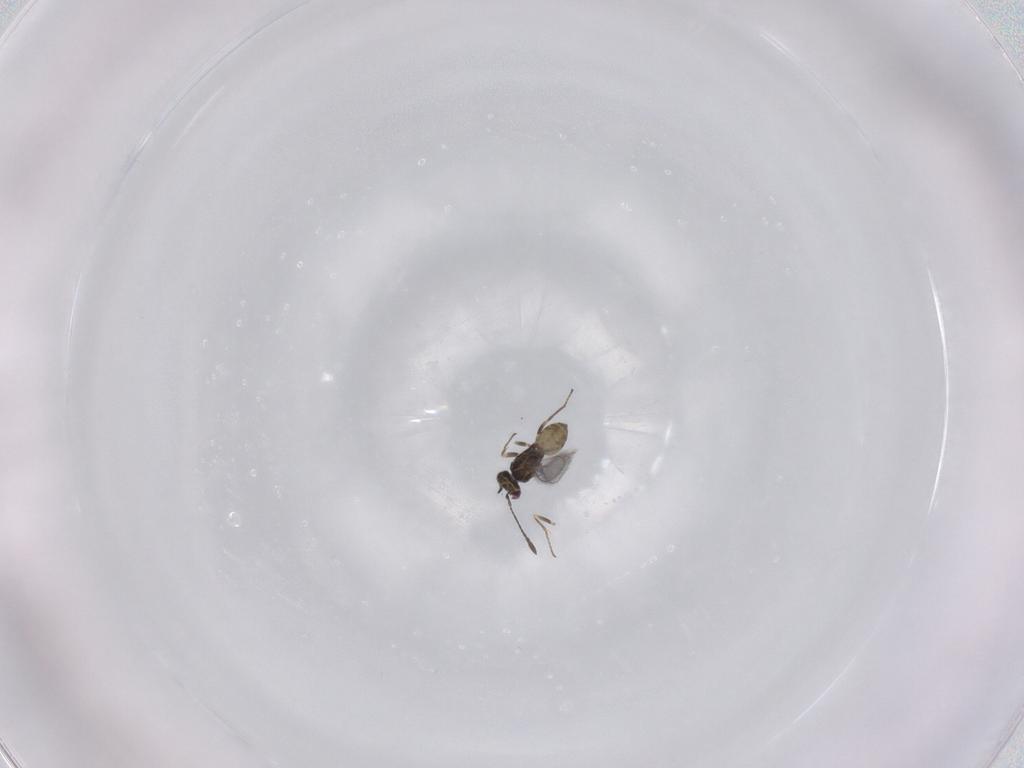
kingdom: Animalia
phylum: Arthropoda
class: Insecta
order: Hymenoptera
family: Mymaridae
